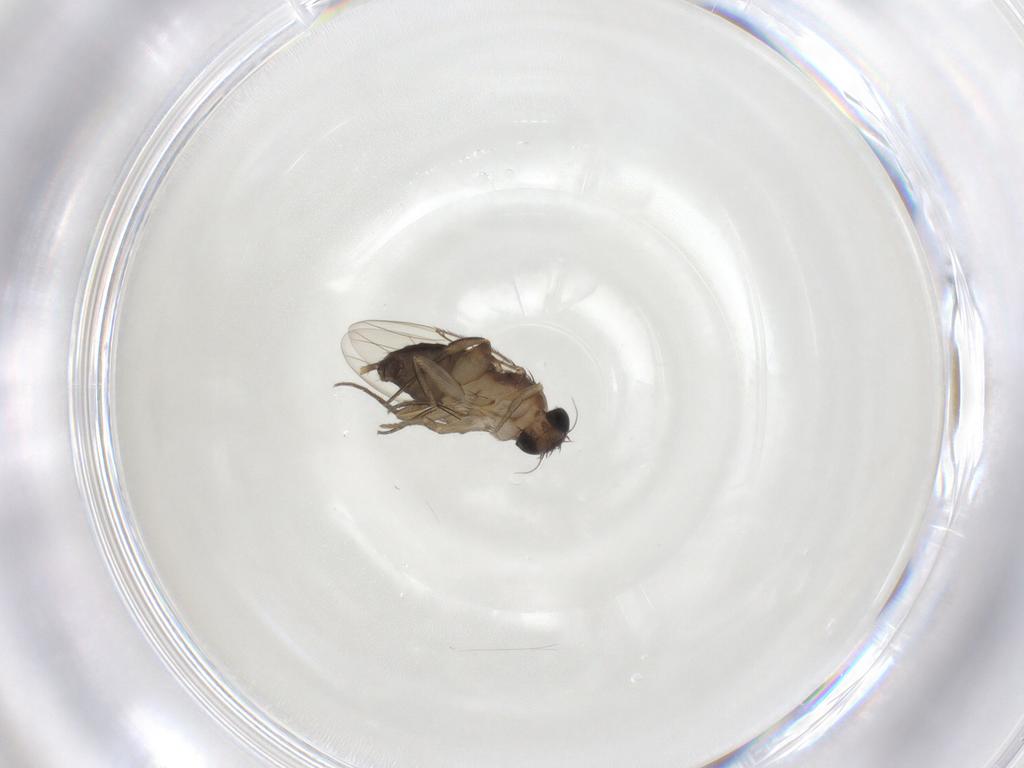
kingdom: Animalia
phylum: Arthropoda
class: Insecta
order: Diptera
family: Phoridae
